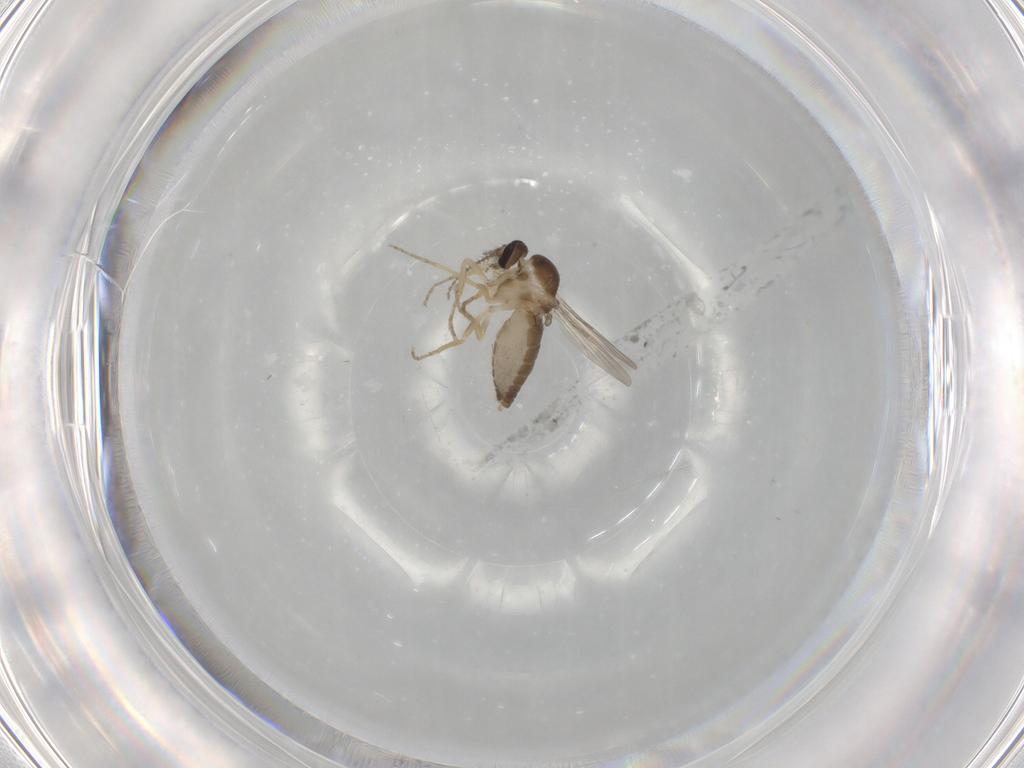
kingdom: Animalia
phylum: Arthropoda
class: Insecta
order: Diptera
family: Ceratopogonidae
